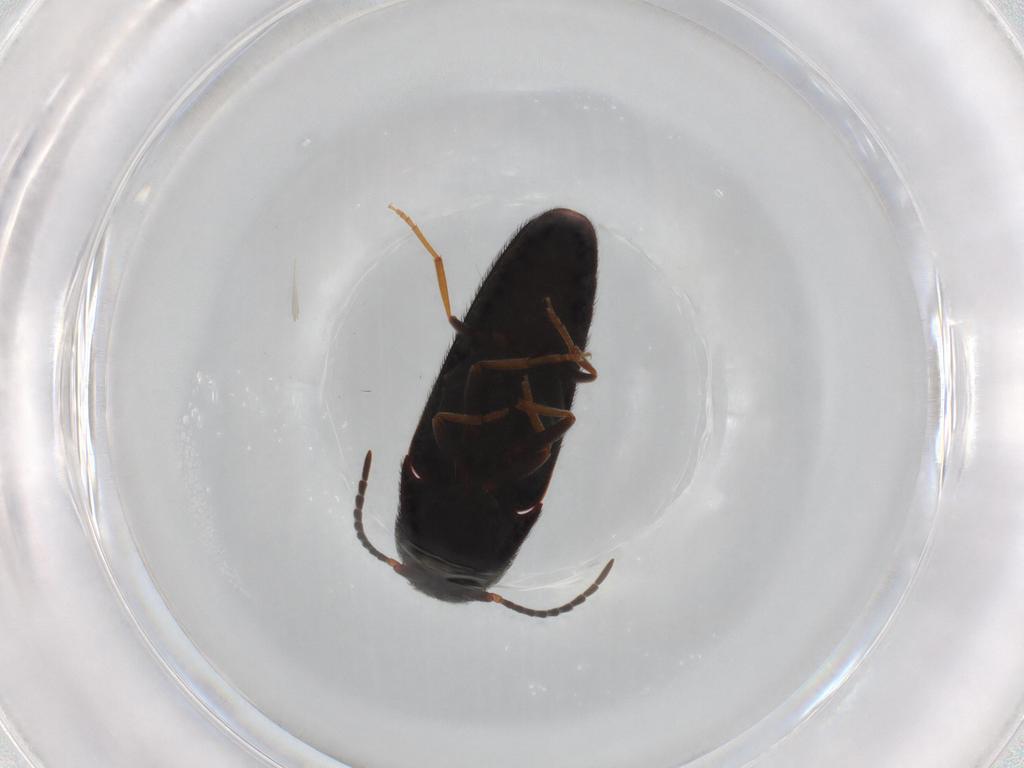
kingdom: Animalia
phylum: Arthropoda
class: Insecta
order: Coleoptera
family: Eucnemidae
